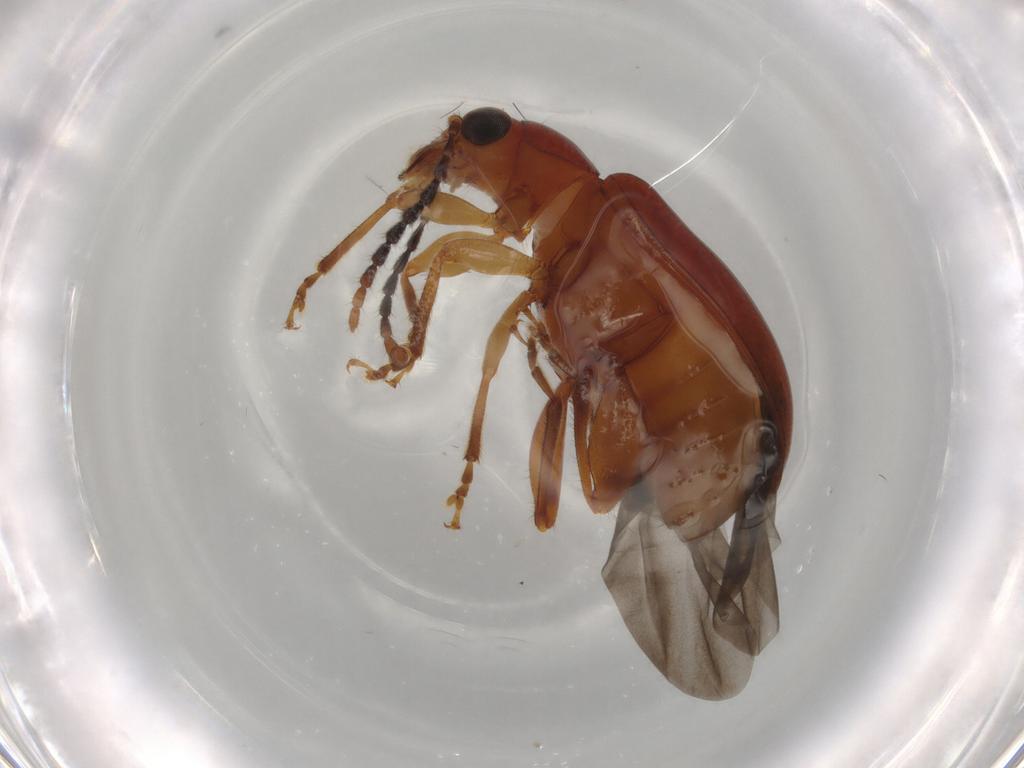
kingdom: Animalia
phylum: Arthropoda
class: Insecta
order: Coleoptera
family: Chrysomelidae
